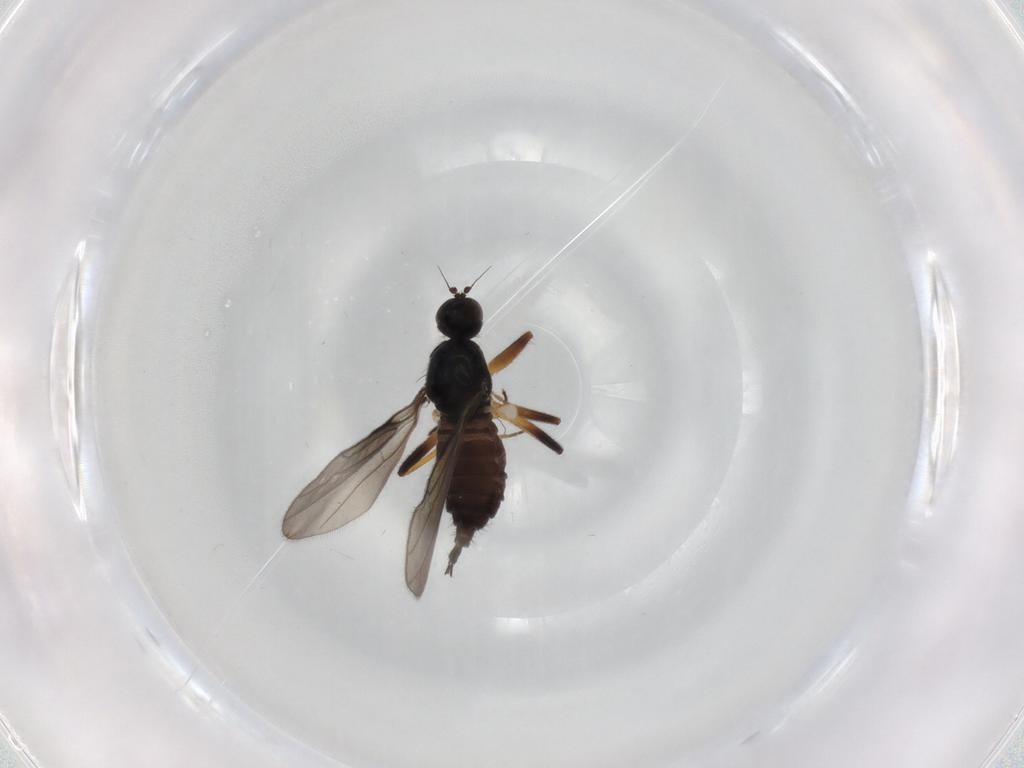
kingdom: Animalia
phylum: Arthropoda
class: Insecta
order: Diptera
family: Hybotidae
